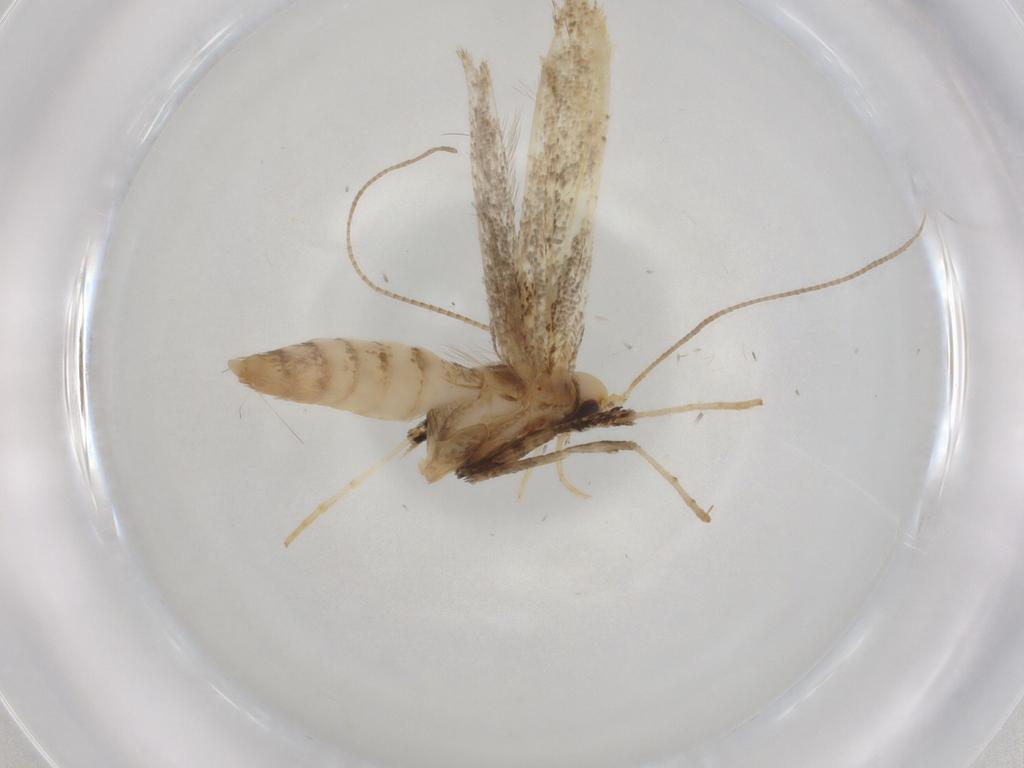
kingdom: Animalia
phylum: Arthropoda
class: Insecta
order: Lepidoptera
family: Gracillariidae
